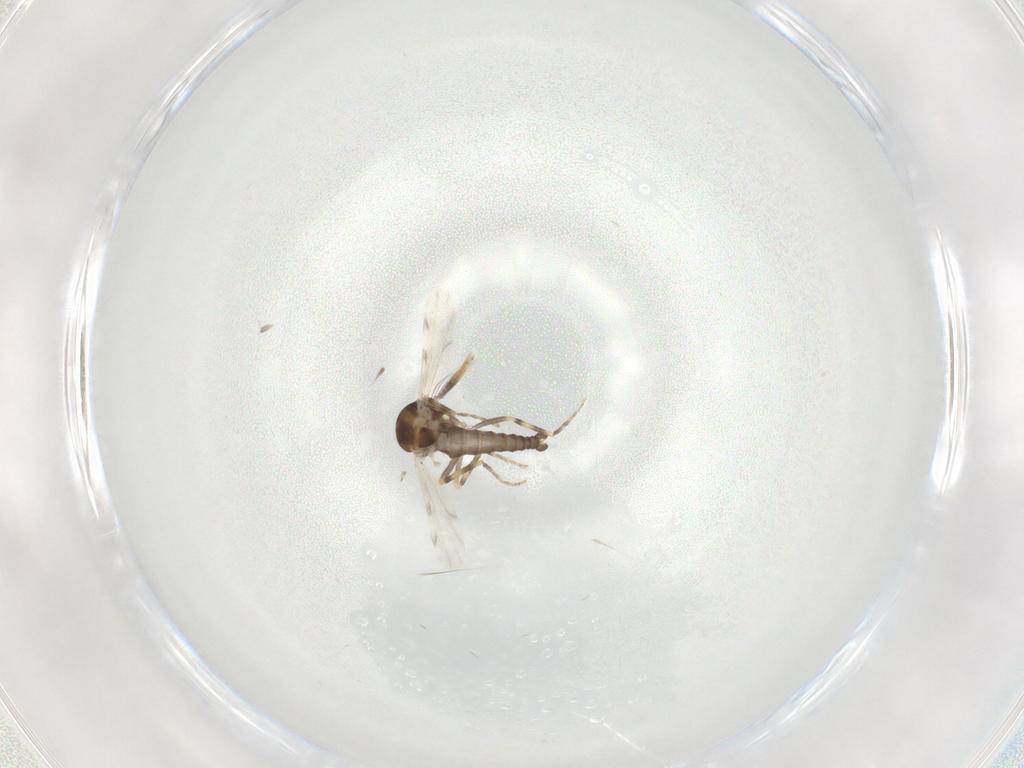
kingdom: Animalia
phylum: Arthropoda
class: Insecta
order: Diptera
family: Ceratopogonidae
